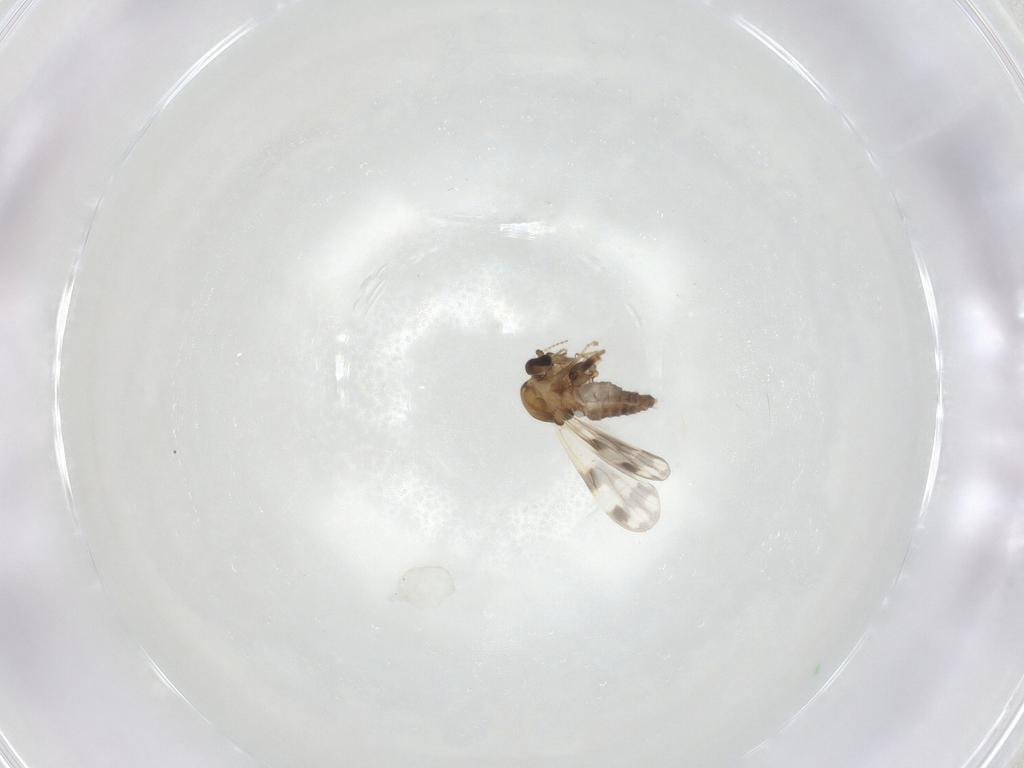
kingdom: Animalia
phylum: Arthropoda
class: Insecta
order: Diptera
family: Ceratopogonidae
